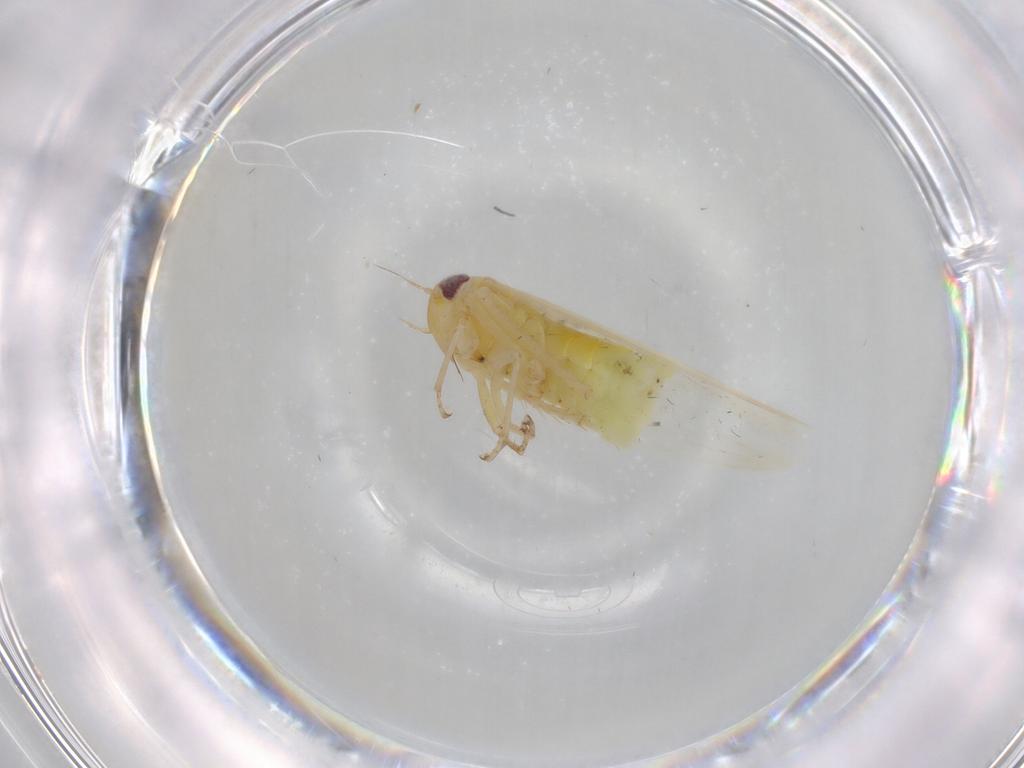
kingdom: Animalia
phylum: Arthropoda
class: Insecta
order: Hemiptera
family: Cicadellidae
